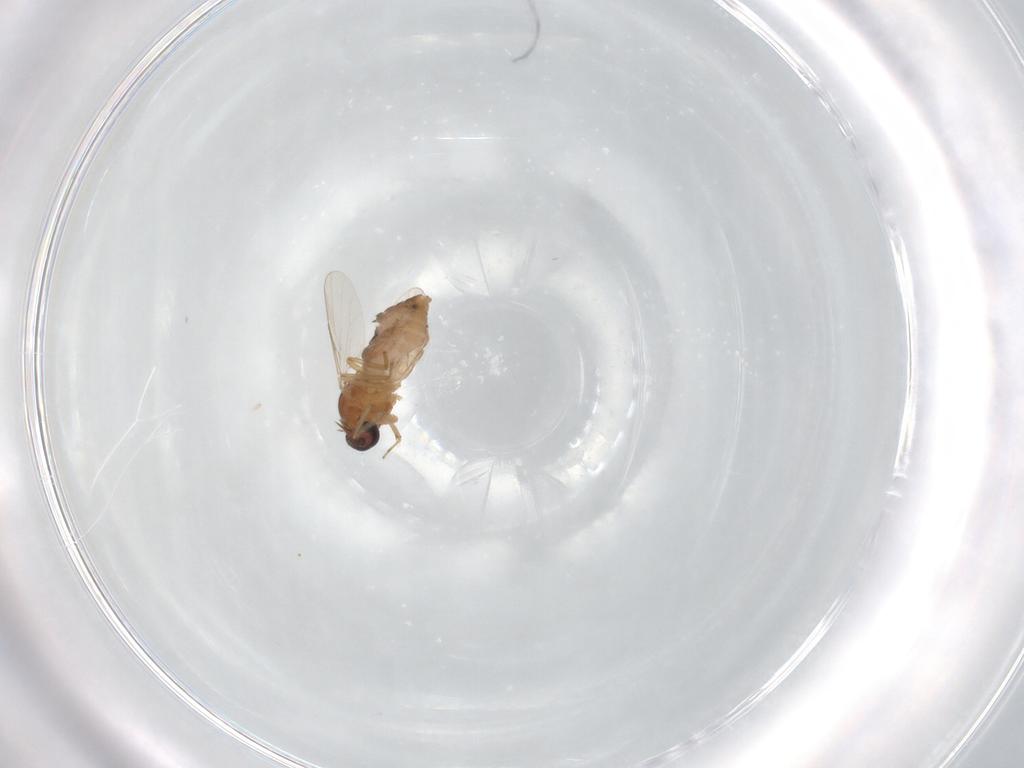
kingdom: Animalia
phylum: Arthropoda
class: Insecta
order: Diptera
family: Ceratopogonidae
